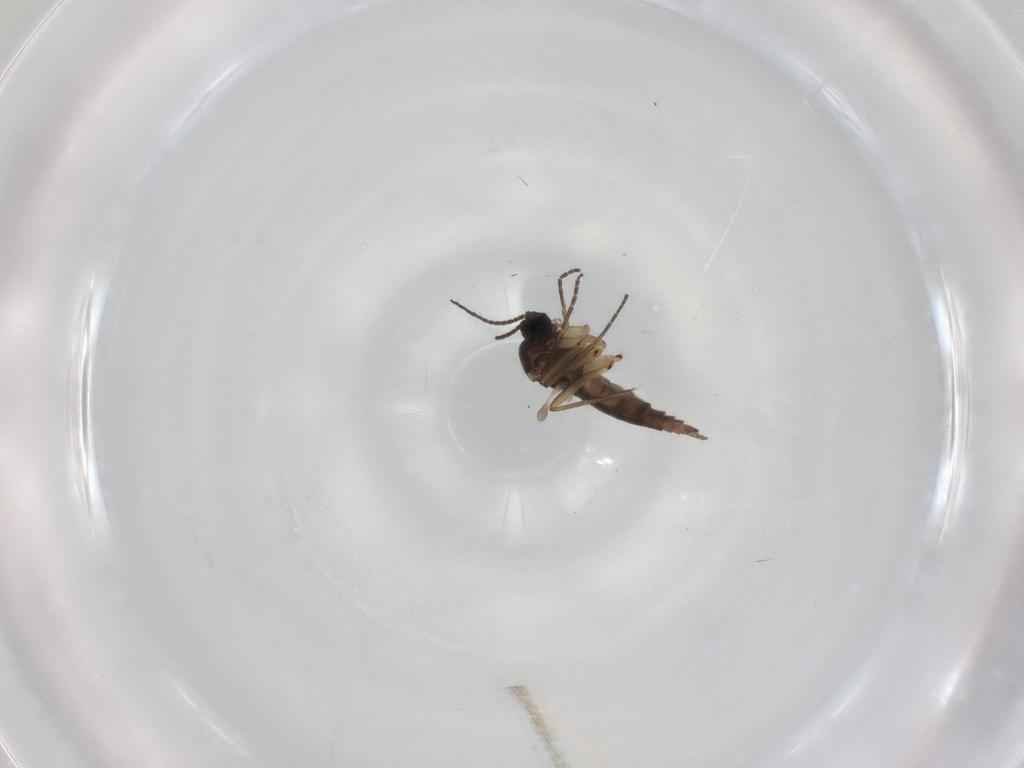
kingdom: Animalia
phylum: Arthropoda
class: Insecta
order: Diptera
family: Sciaridae
